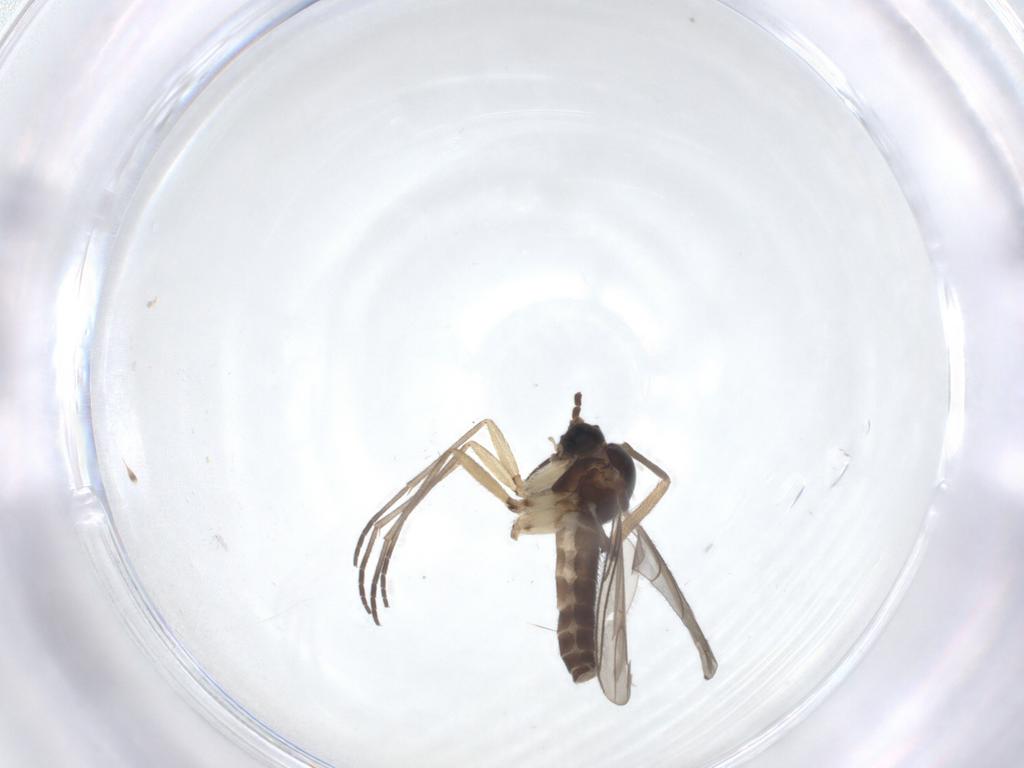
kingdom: Animalia
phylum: Arthropoda
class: Insecta
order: Diptera
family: Sciaridae
